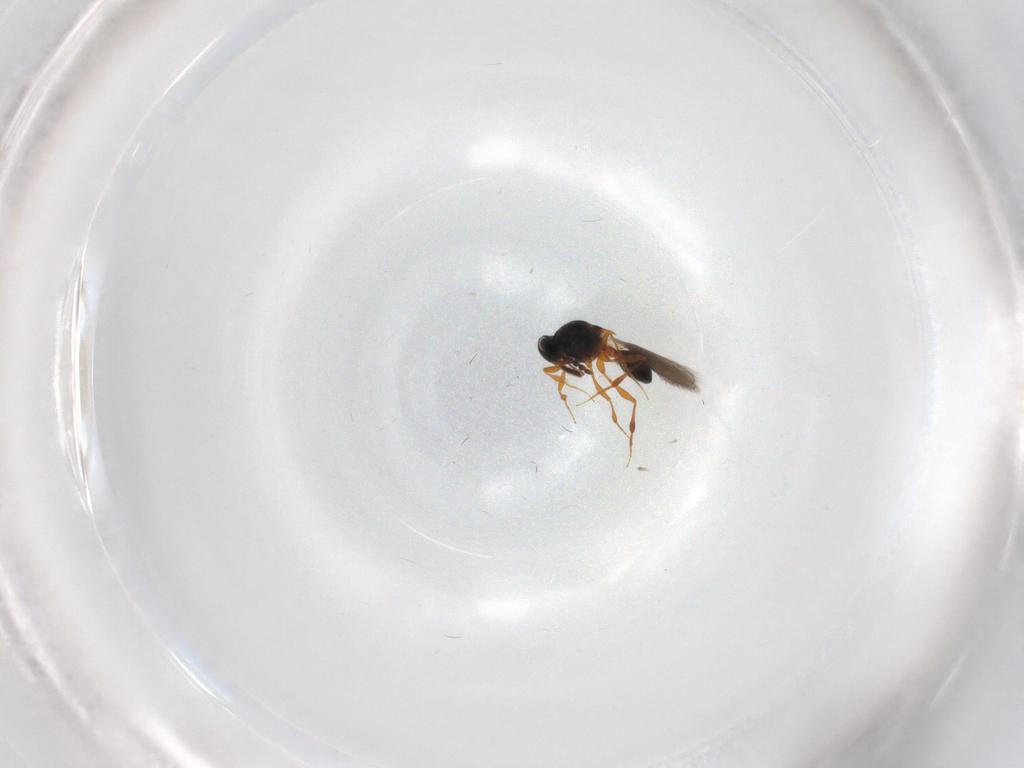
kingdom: Animalia
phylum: Arthropoda
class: Insecta
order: Hymenoptera
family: Platygastridae
